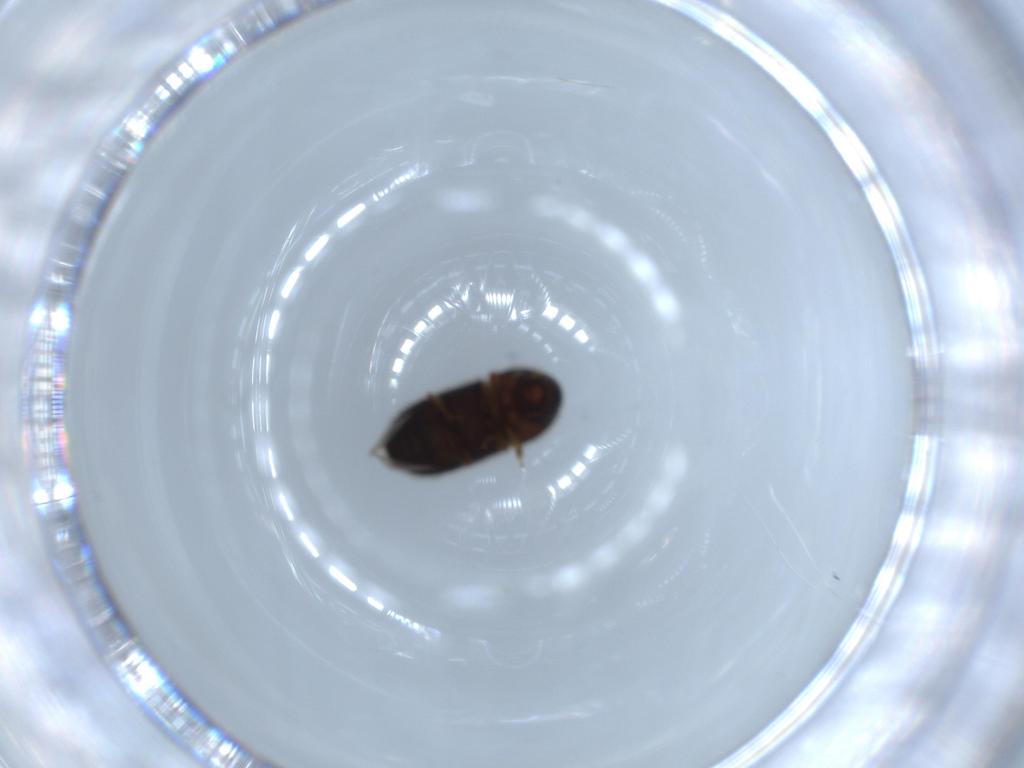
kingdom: Animalia
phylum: Arthropoda
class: Insecta
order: Coleoptera
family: Curculionidae
